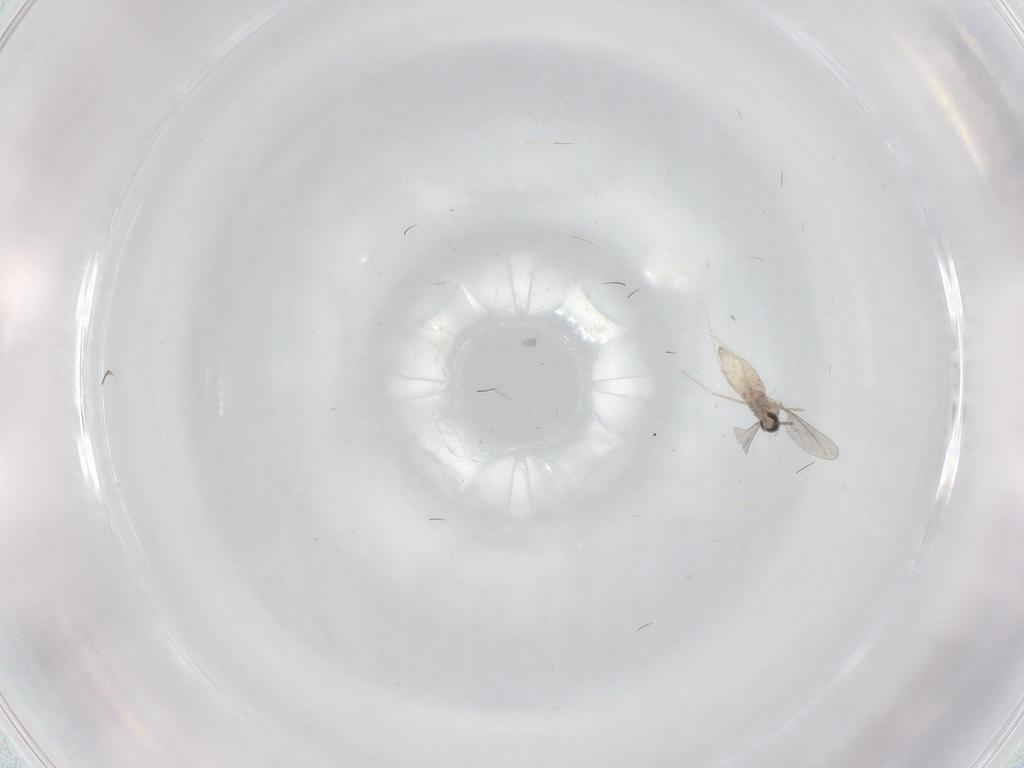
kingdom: Animalia
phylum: Arthropoda
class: Insecta
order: Diptera
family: Cecidomyiidae
